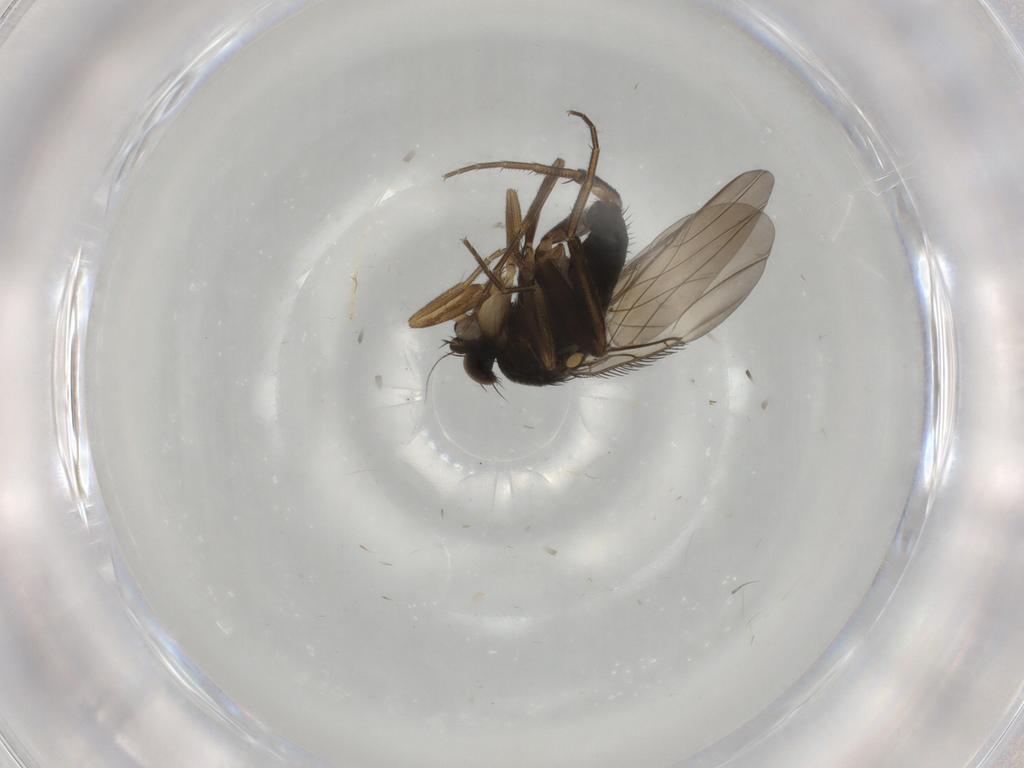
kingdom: Animalia
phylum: Arthropoda
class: Insecta
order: Diptera
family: Phoridae
